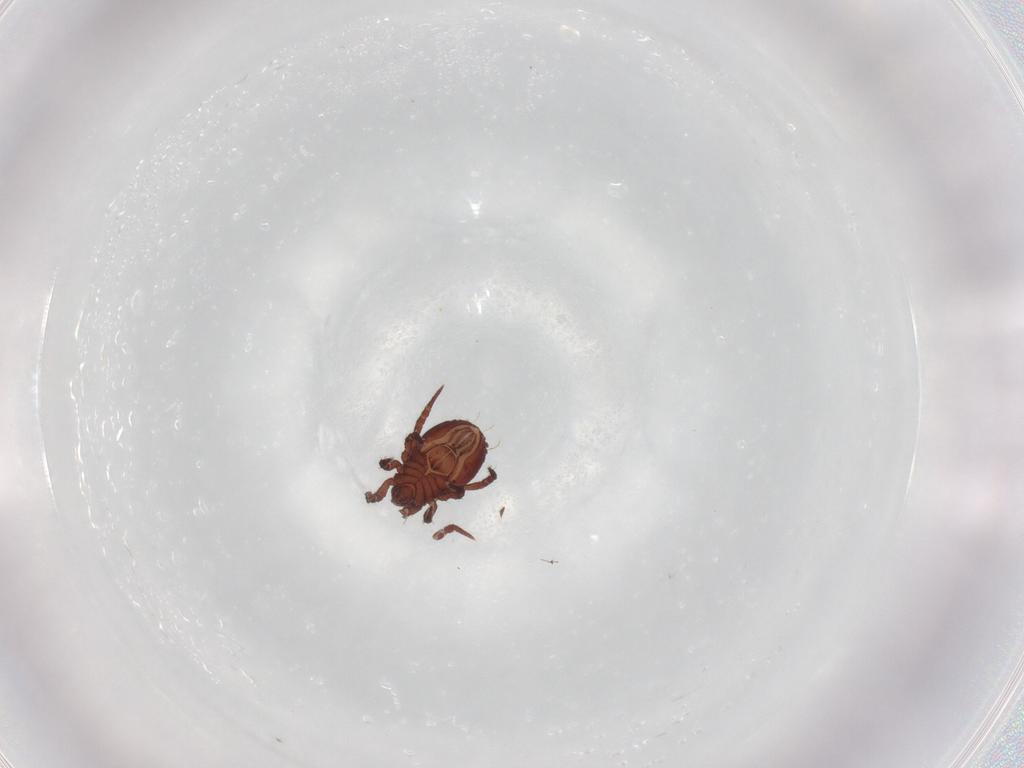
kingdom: Animalia
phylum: Arthropoda
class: Arachnida
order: Sarcoptiformes
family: Nothridae
